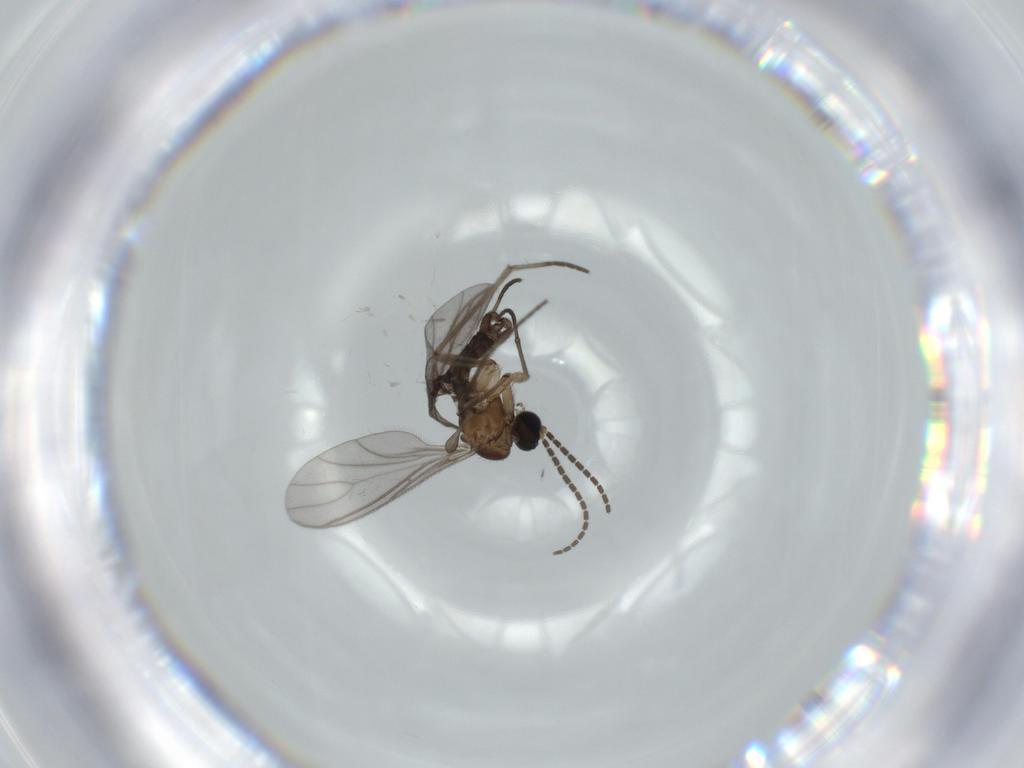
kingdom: Animalia
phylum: Arthropoda
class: Insecta
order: Diptera
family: Sciaridae
